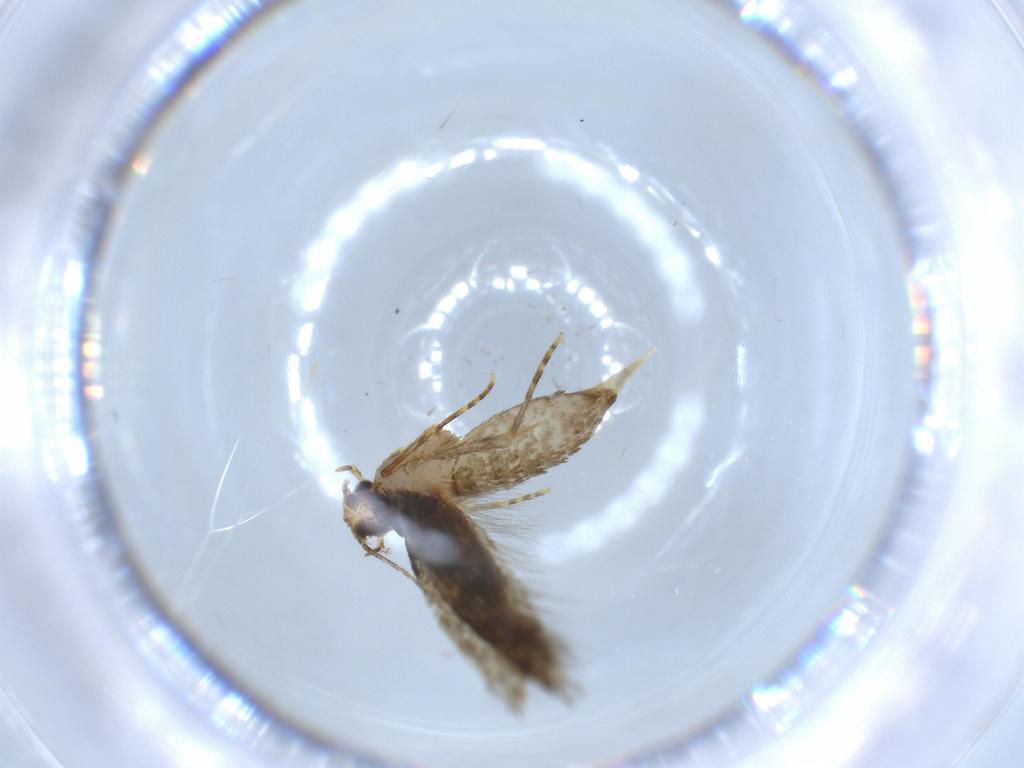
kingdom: Animalia
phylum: Arthropoda
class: Insecta
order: Lepidoptera
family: Tineidae
